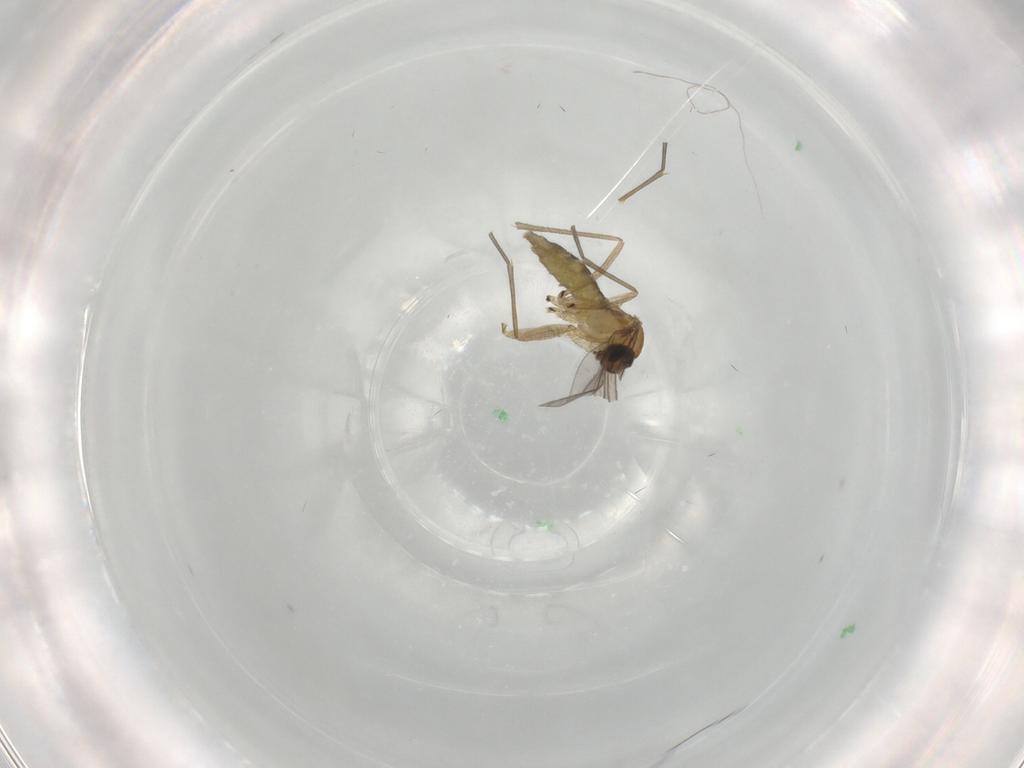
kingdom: Animalia
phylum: Arthropoda
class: Insecta
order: Diptera
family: Sciaridae
